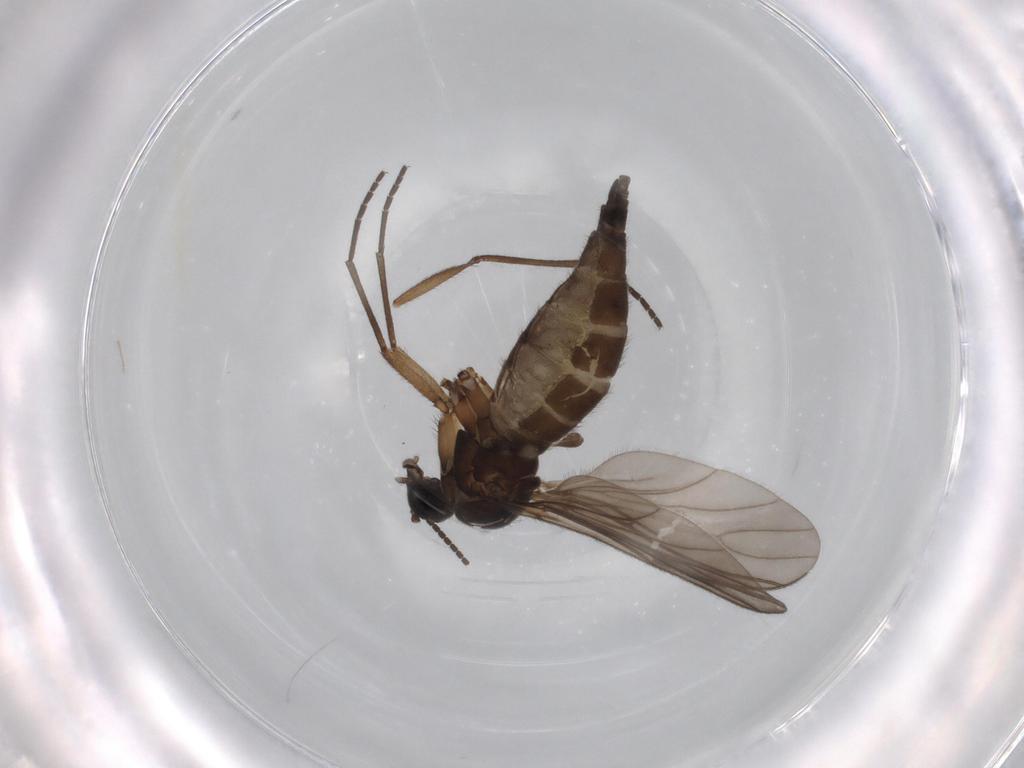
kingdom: Animalia
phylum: Arthropoda
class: Insecta
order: Diptera
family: Sciaridae
